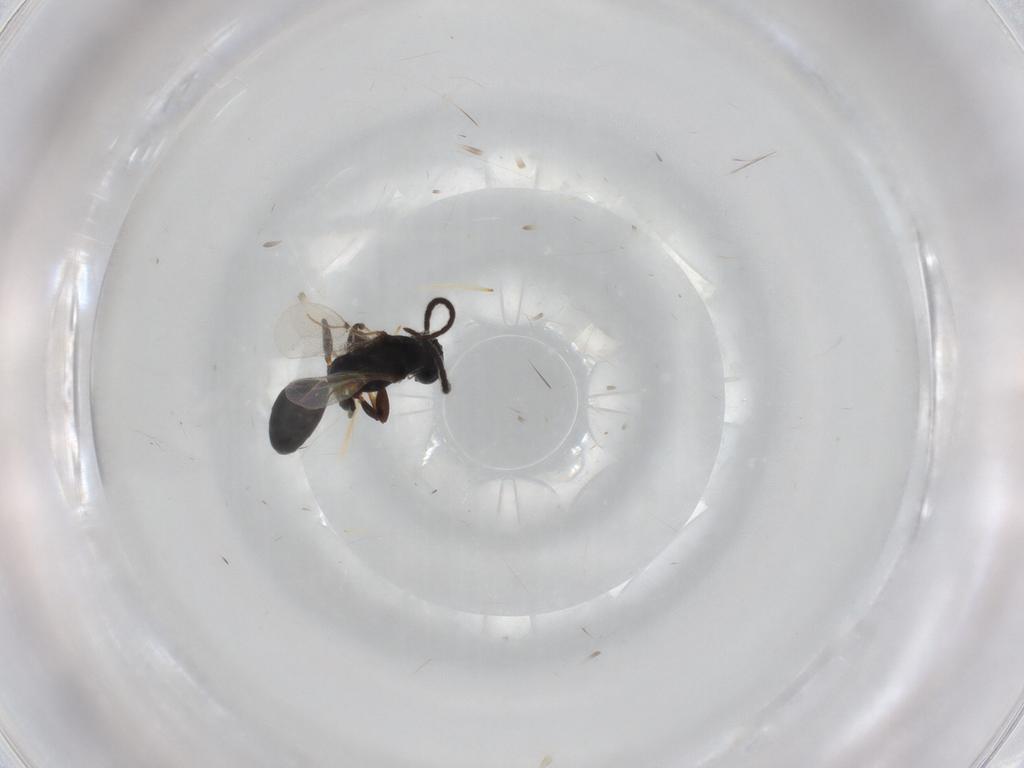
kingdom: Animalia
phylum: Arthropoda
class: Insecta
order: Hymenoptera
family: Bethylidae
